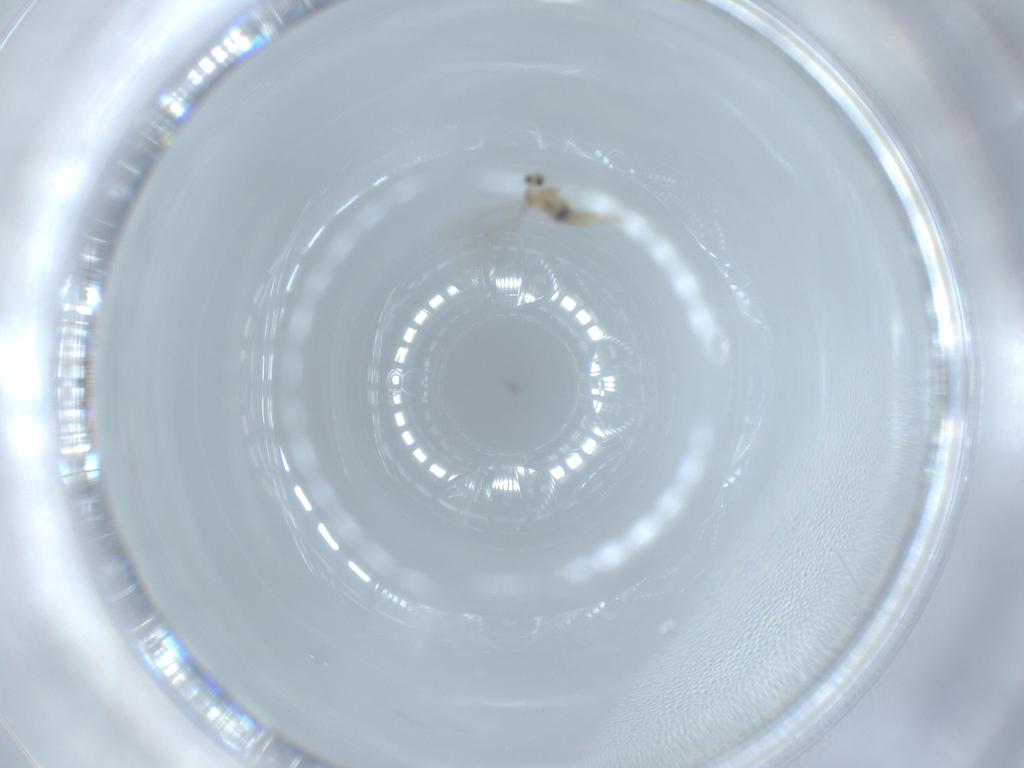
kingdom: Animalia
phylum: Arthropoda
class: Insecta
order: Diptera
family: Cecidomyiidae
